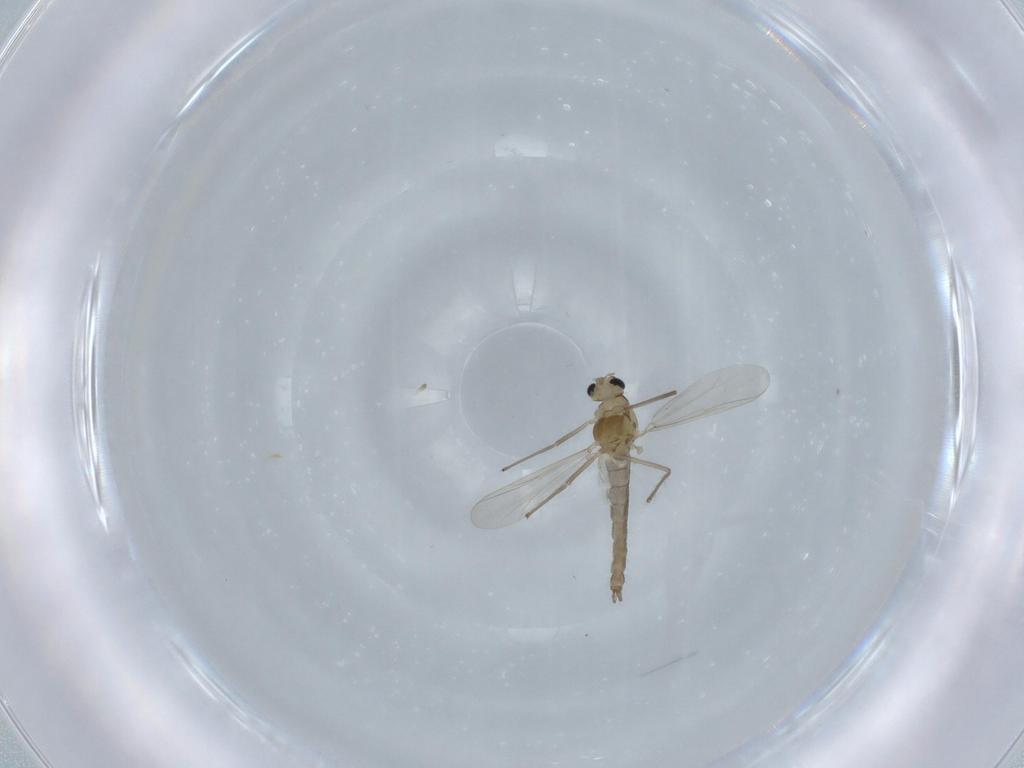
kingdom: Animalia
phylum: Arthropoda
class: Insecta
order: Diptera
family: Chironomidae
